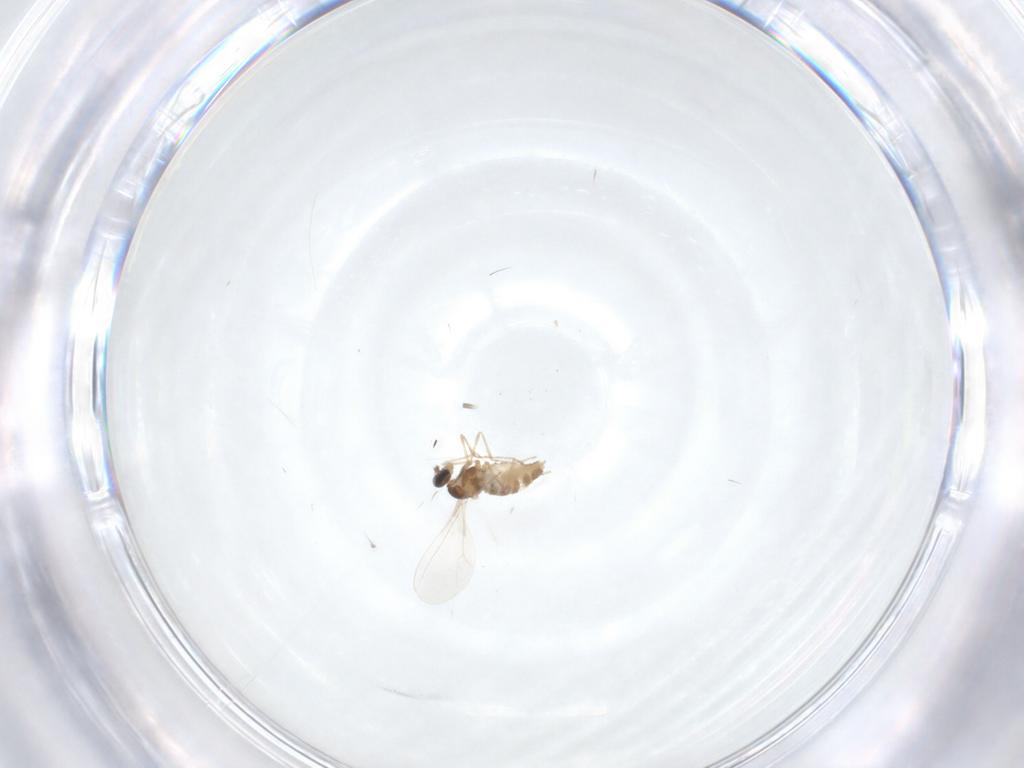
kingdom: Animalia
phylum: Arthropoda
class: Insecta
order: Diptera
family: Cecidomyiidae
